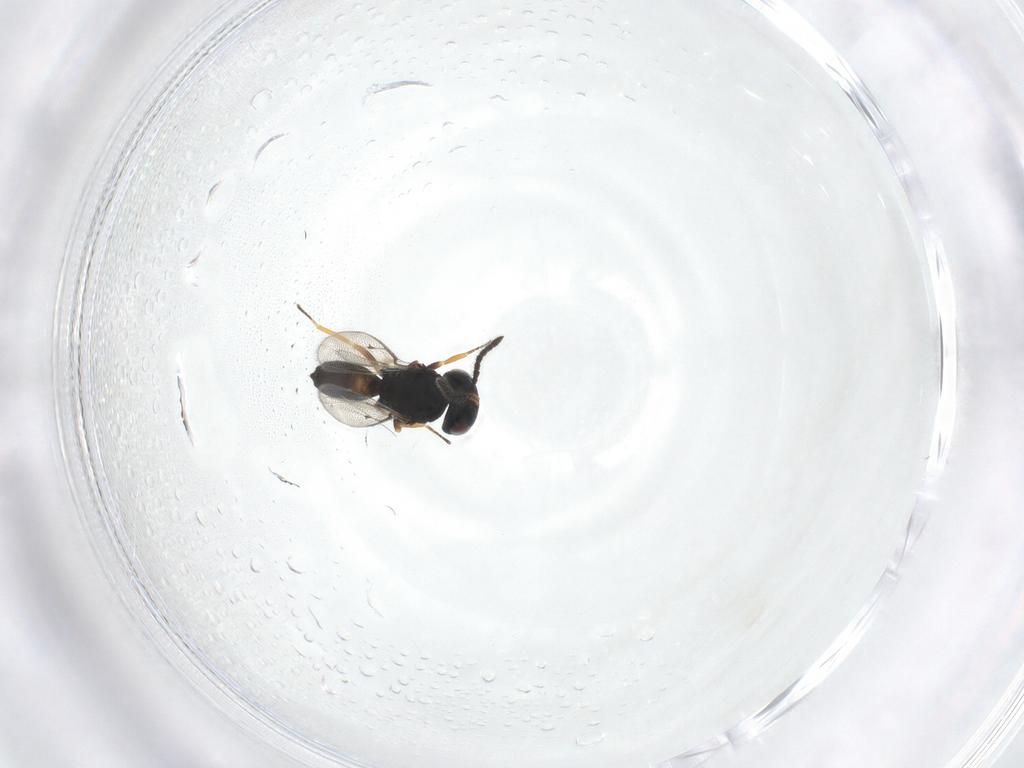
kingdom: Animalia
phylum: Arthropoda
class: Insecta
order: Hymenoptera
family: Pteromalidae
